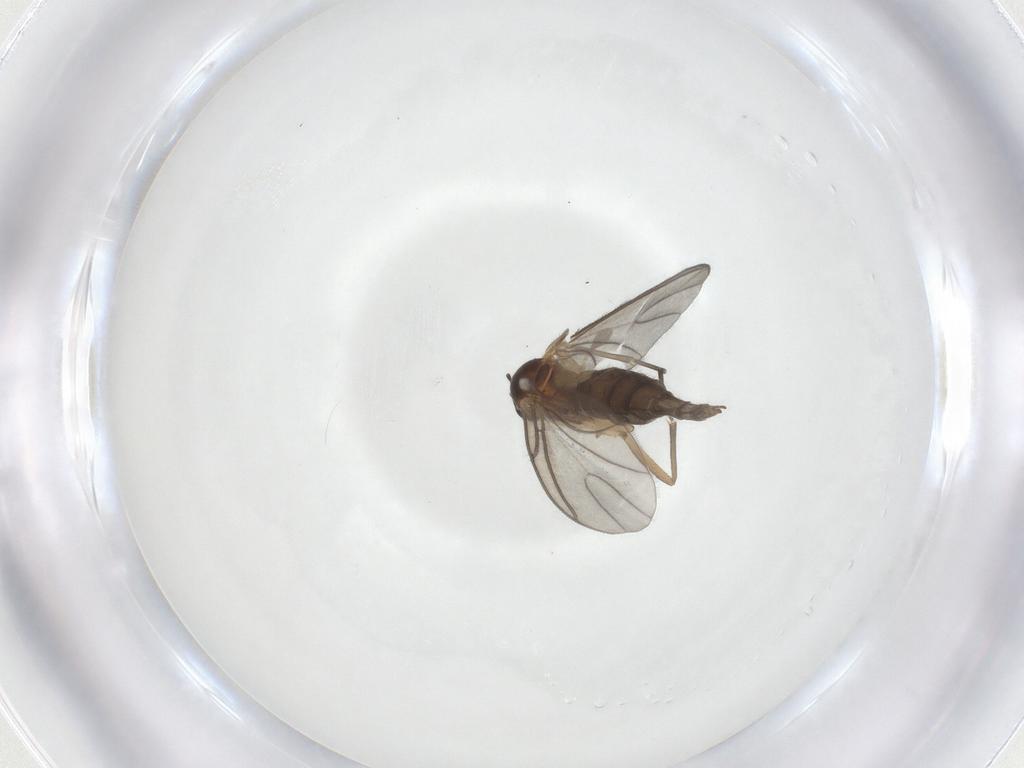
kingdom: Animalia
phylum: Arthropoda
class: Insecta
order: Diptera
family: Sciaridae
